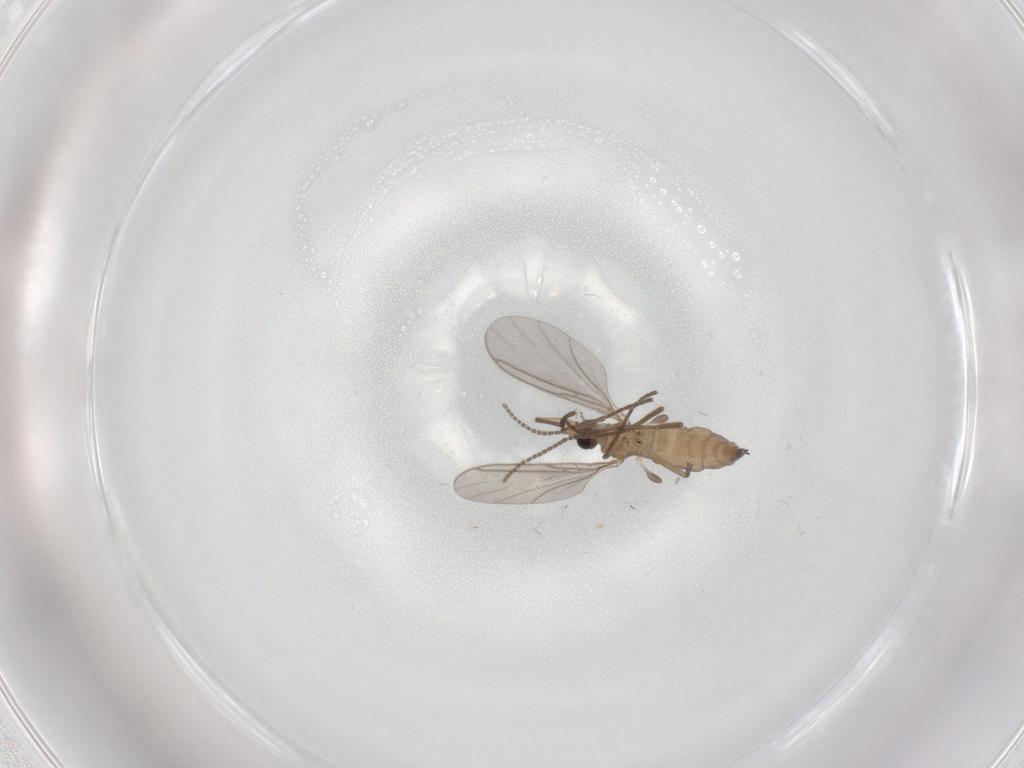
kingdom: Animalia
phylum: Arthropoda
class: Insecta
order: Diptera
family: Sciaridae
